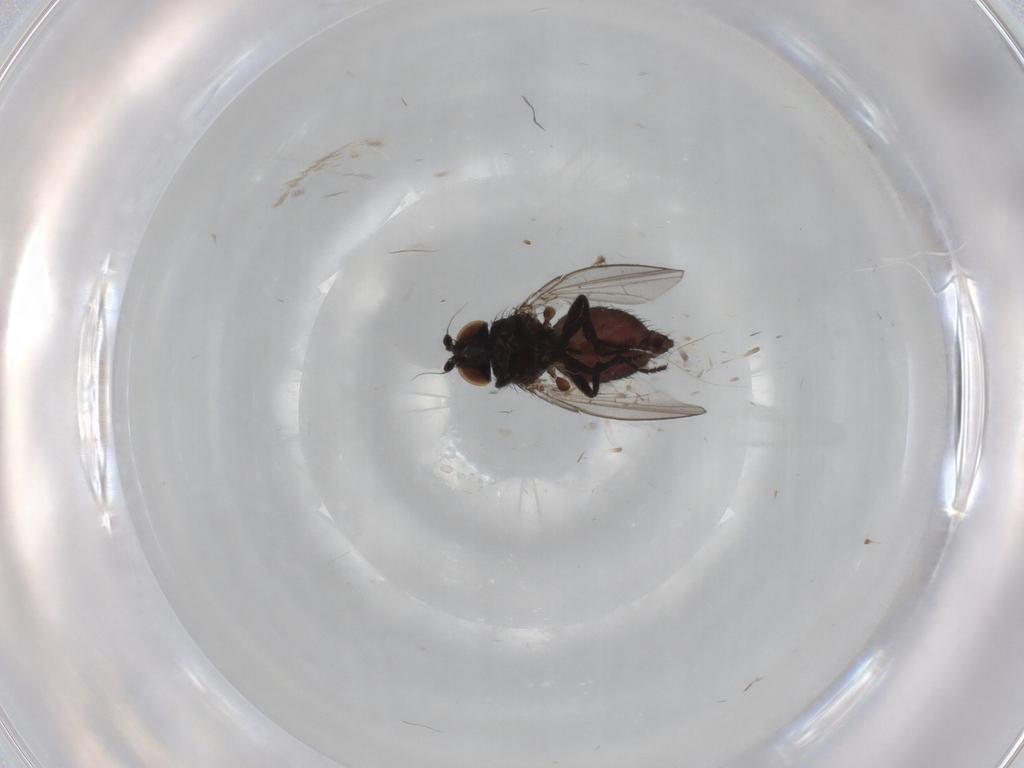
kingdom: Animalia
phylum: Arthropoda
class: Insecta
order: Diptera
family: Milichiidae
